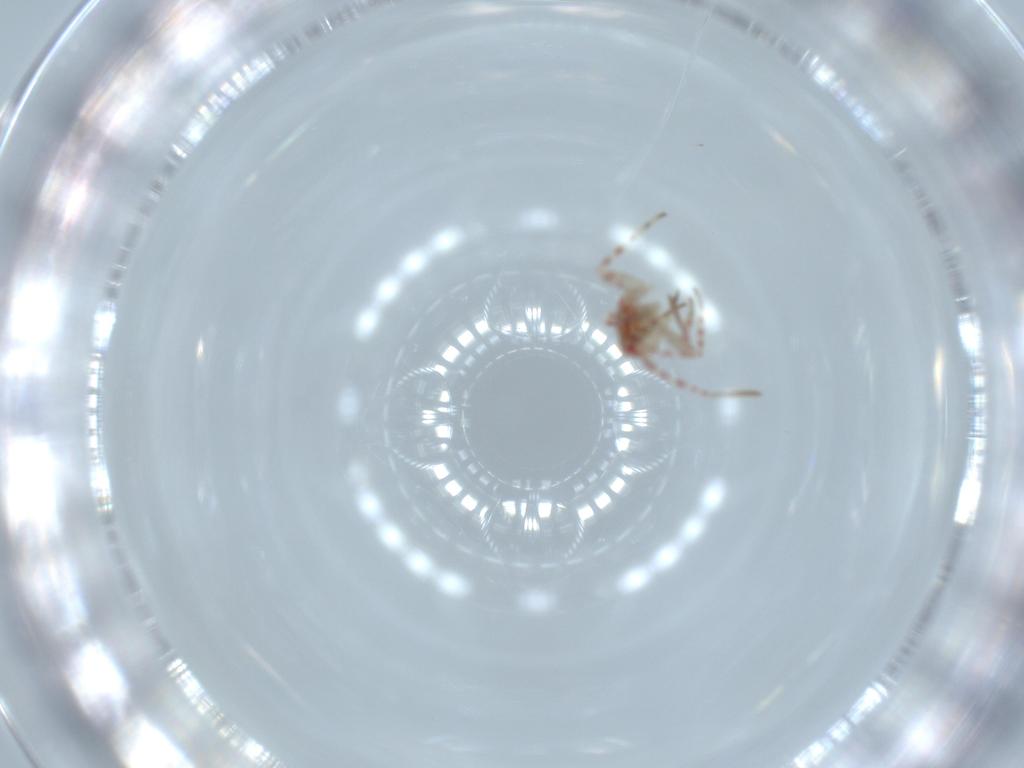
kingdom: Animalia
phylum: Arthropoda
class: Insecta
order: Hemiptera
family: Miridae
